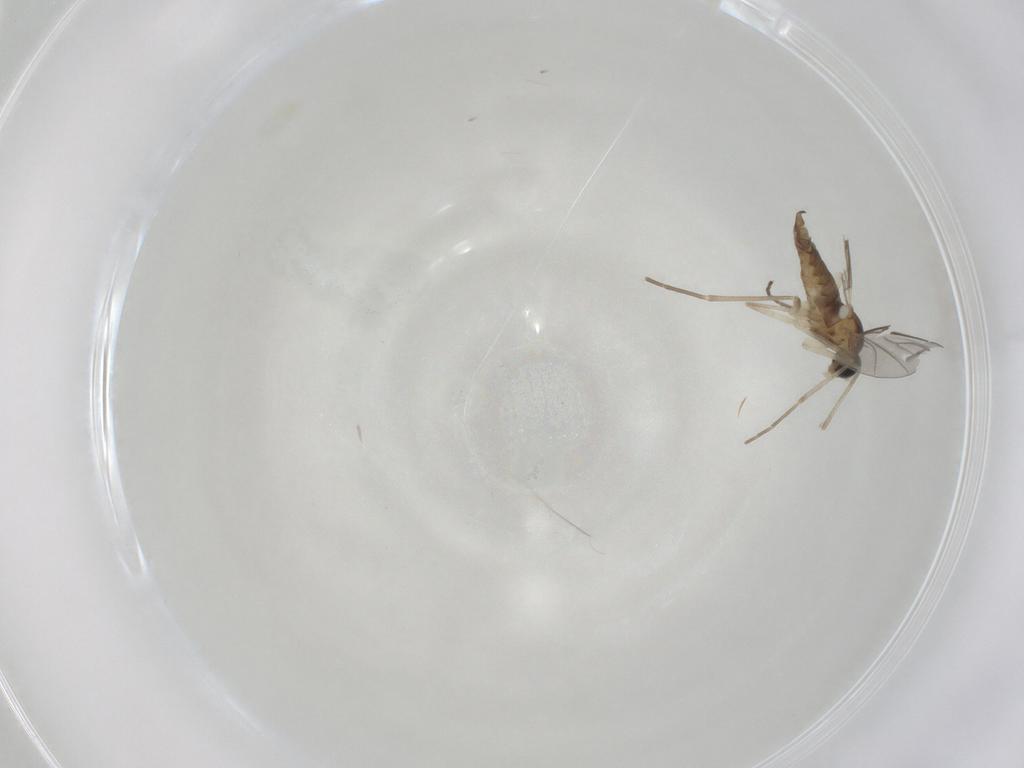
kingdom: Animalia
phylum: Arthropoda
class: Insecta
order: Diptera
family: Cecidomyiidae
